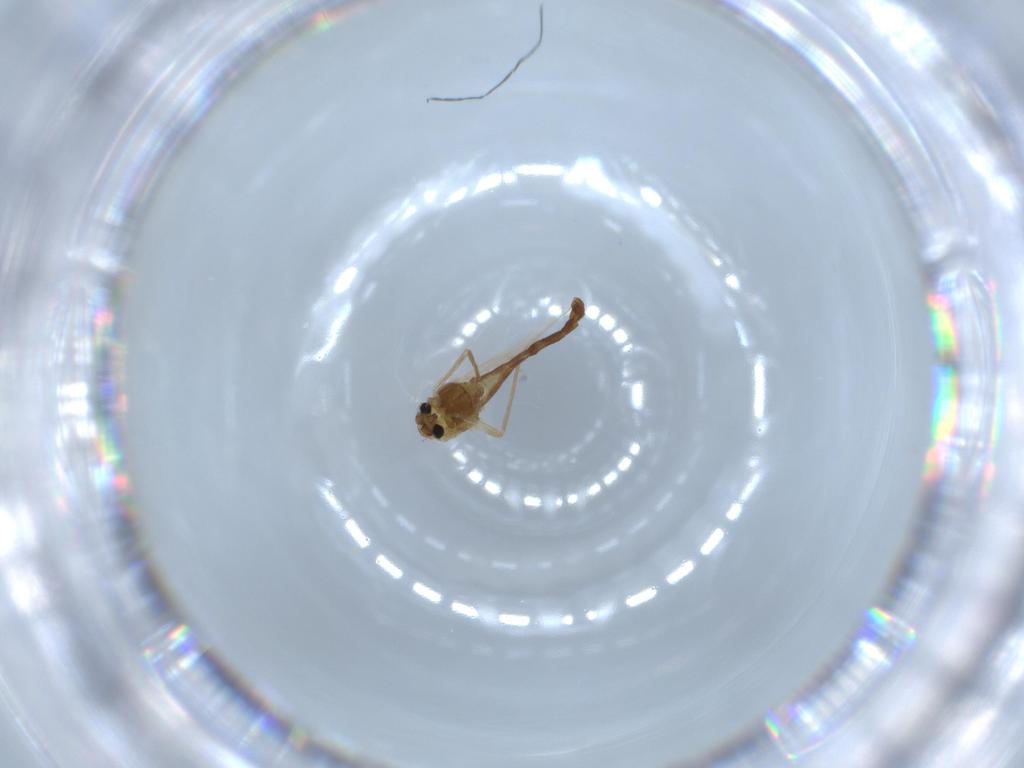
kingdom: Animalia
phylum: Arthropoda
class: Insecta
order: Diptera
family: Chironomidae
